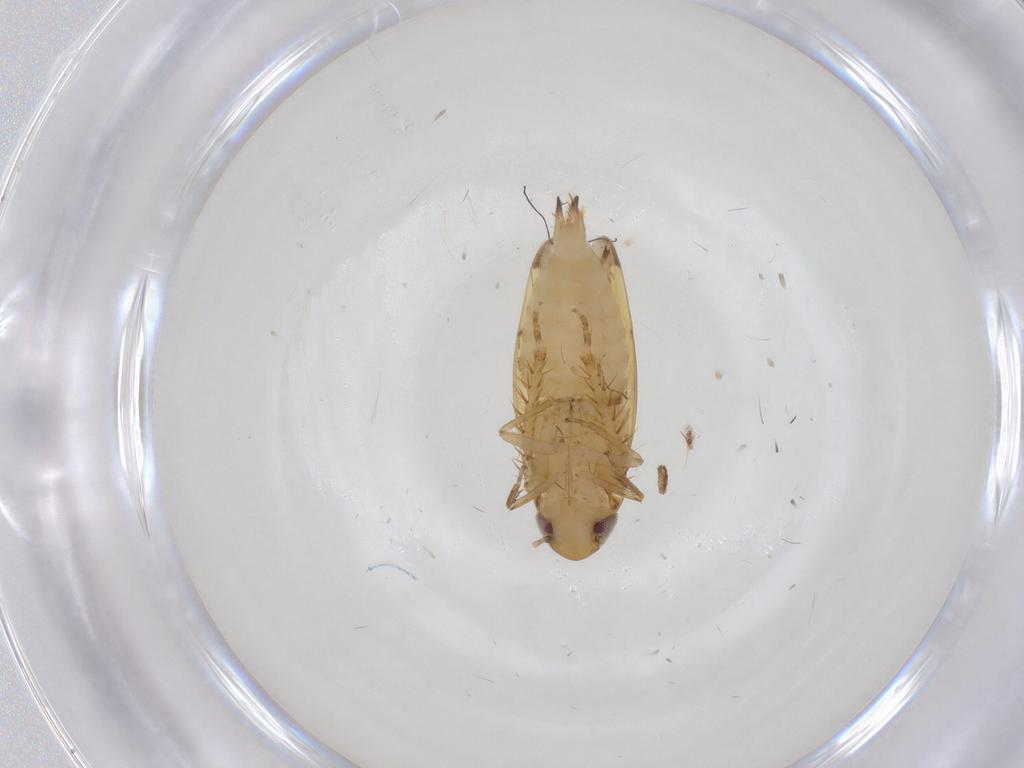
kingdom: Animalia
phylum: Arthropoda
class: Insecta
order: Hemiptera
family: Cicadellidae
